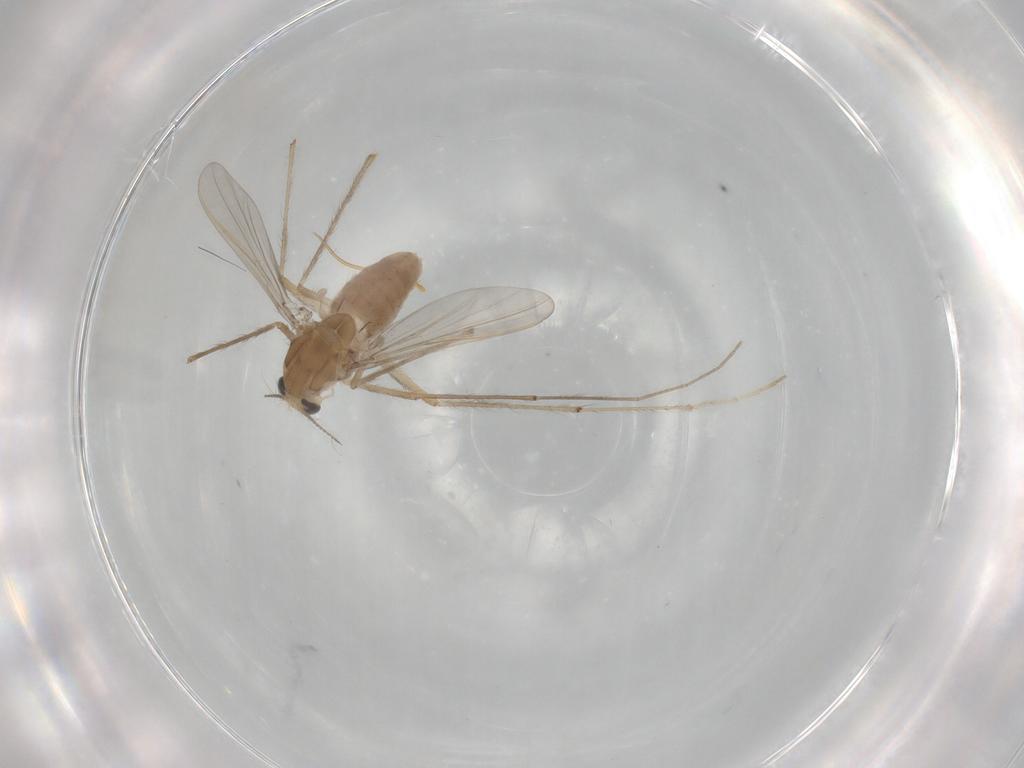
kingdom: Animalia
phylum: Arthropoda
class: Insecta
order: Diptera
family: Chironomidae
